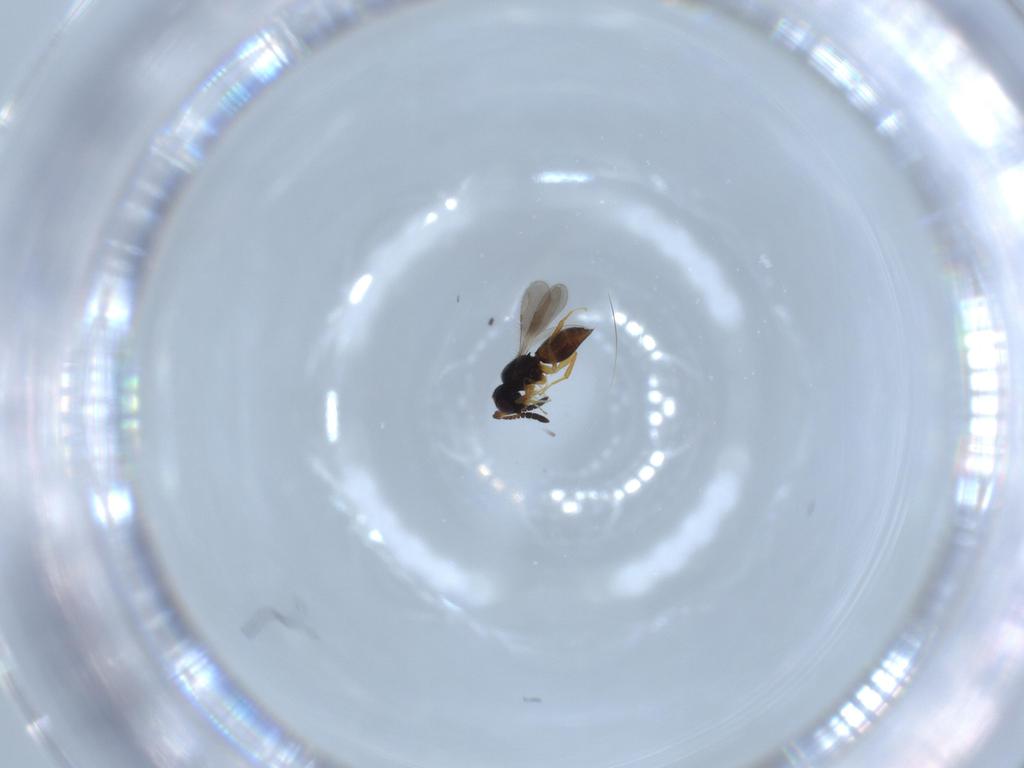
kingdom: Animalia
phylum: Arthropoda
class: Insecta
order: Hymenoptera
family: Ceraphronidae
